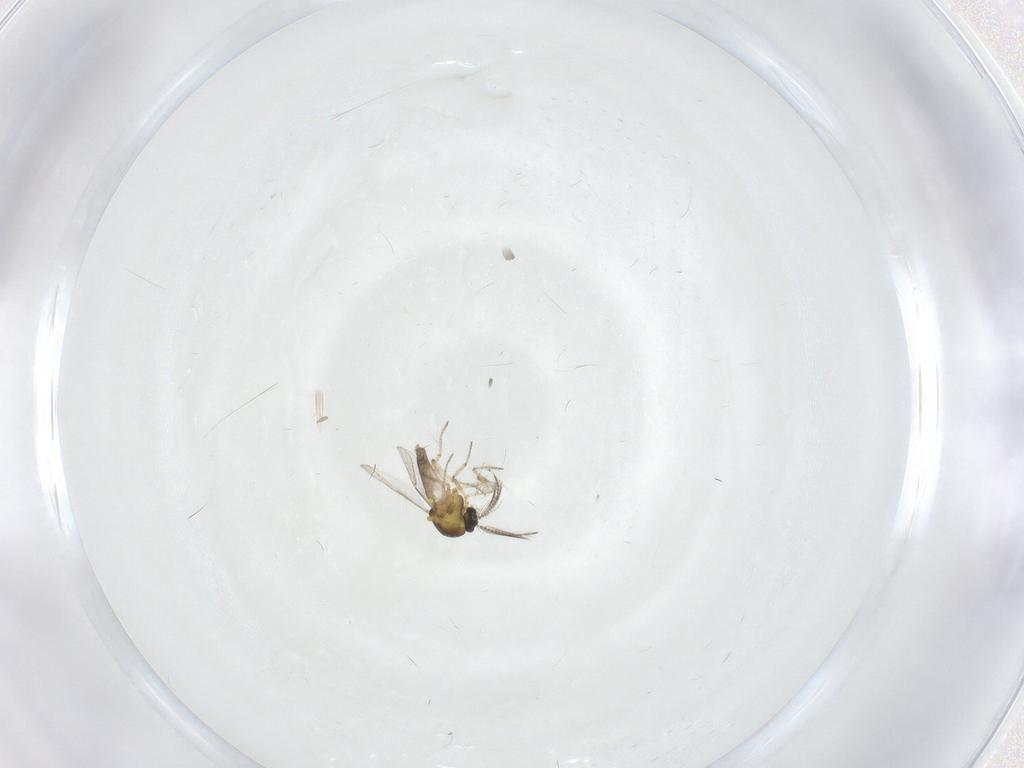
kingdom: Animalia
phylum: Arthropoda
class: Insecta
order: Diptera
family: Ceratopogonidae
